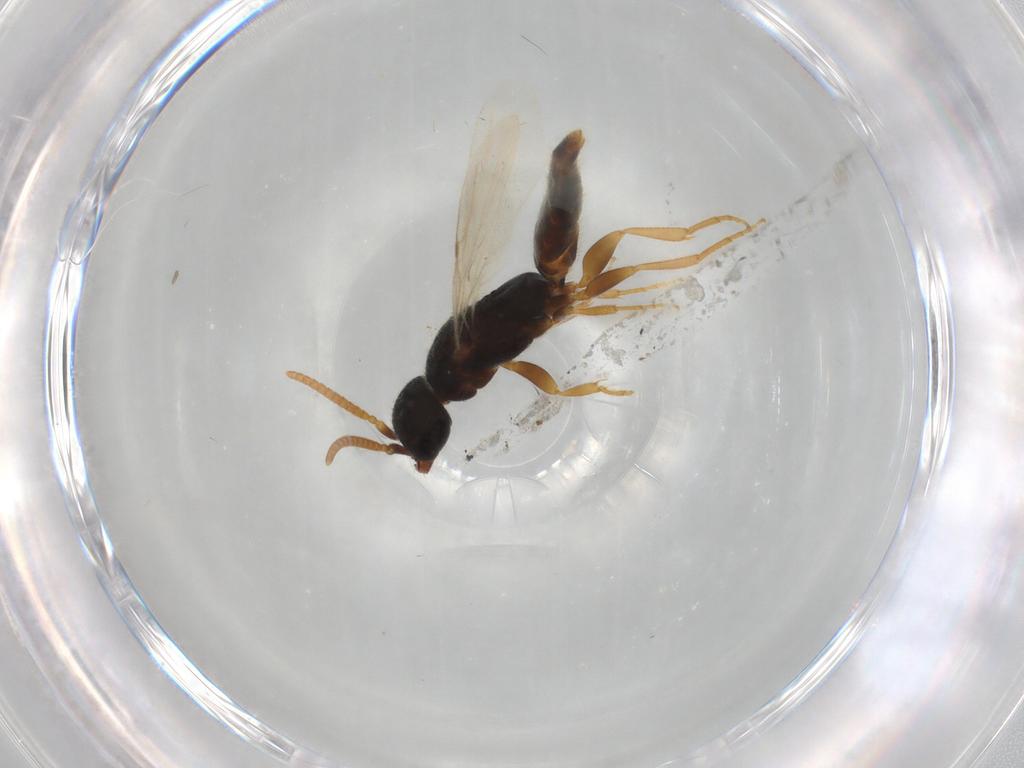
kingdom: Animalia
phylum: Arthropoda
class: Insecta
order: Hymenoptera
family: Bethylidae
